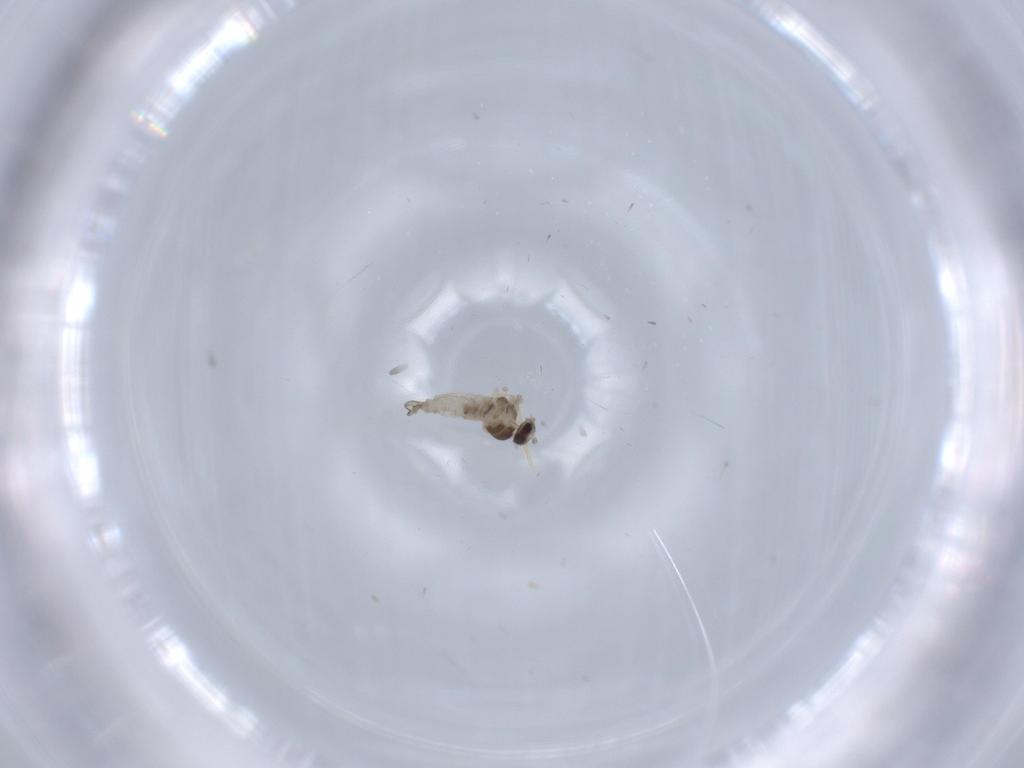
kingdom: Animalia
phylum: Arthropoda
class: Insecta
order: Diptera
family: Cecidomyiidae
